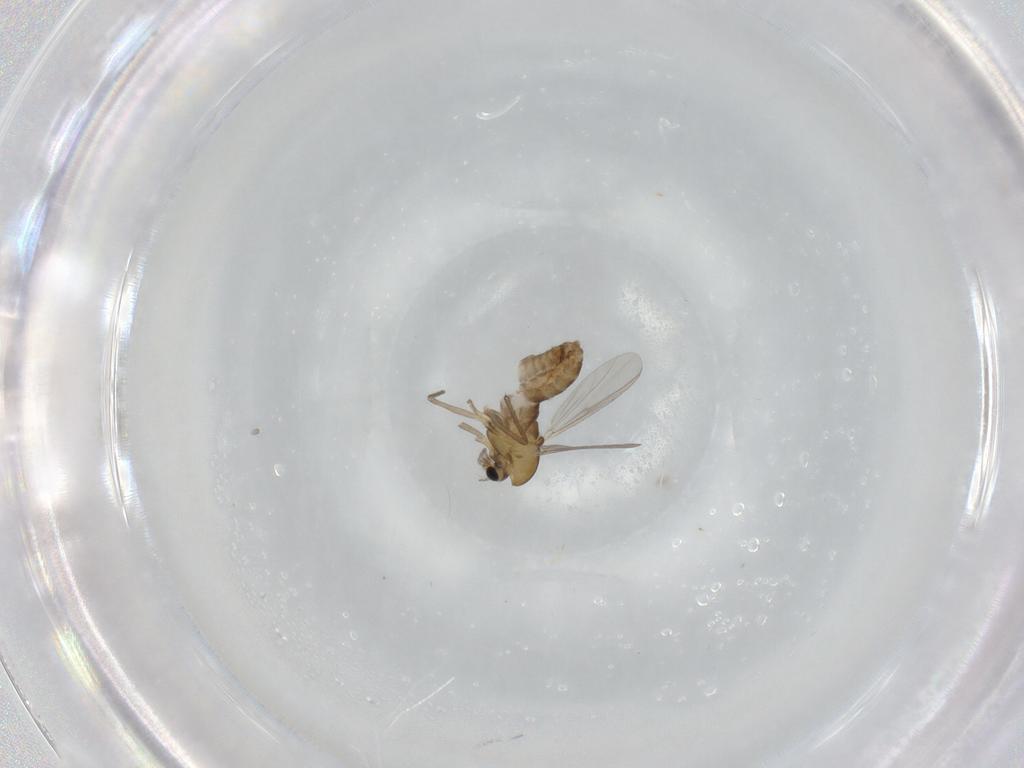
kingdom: Animalia
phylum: Arthropoda
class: Insecta
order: Diptera
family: Chironomidae
